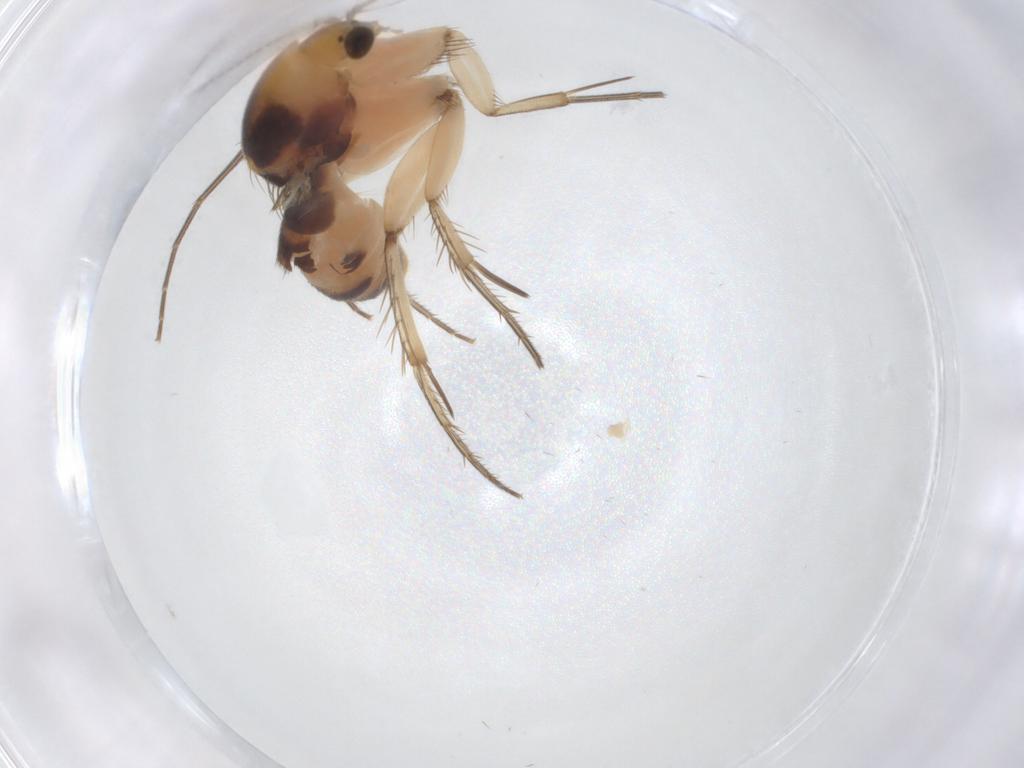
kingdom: Animalia
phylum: Arthropoda
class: Insecta
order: Diptera
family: Mycetophilidae
